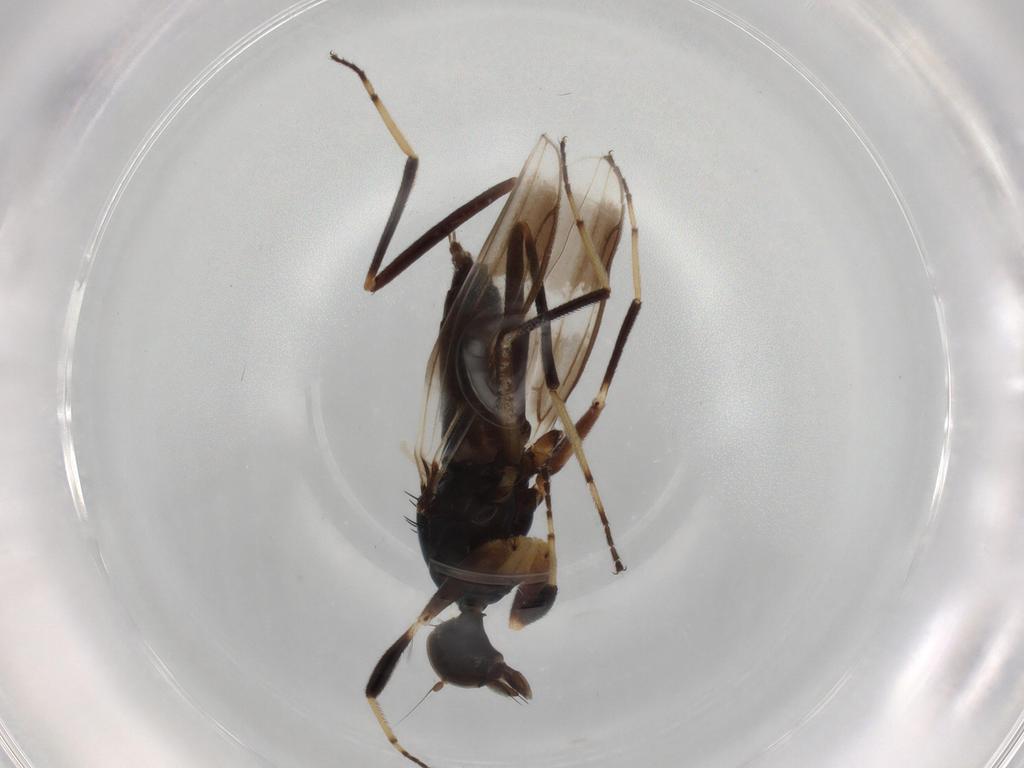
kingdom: Animalia
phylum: Arthropoda
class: Insecta
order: Diptera
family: Hybotidae
